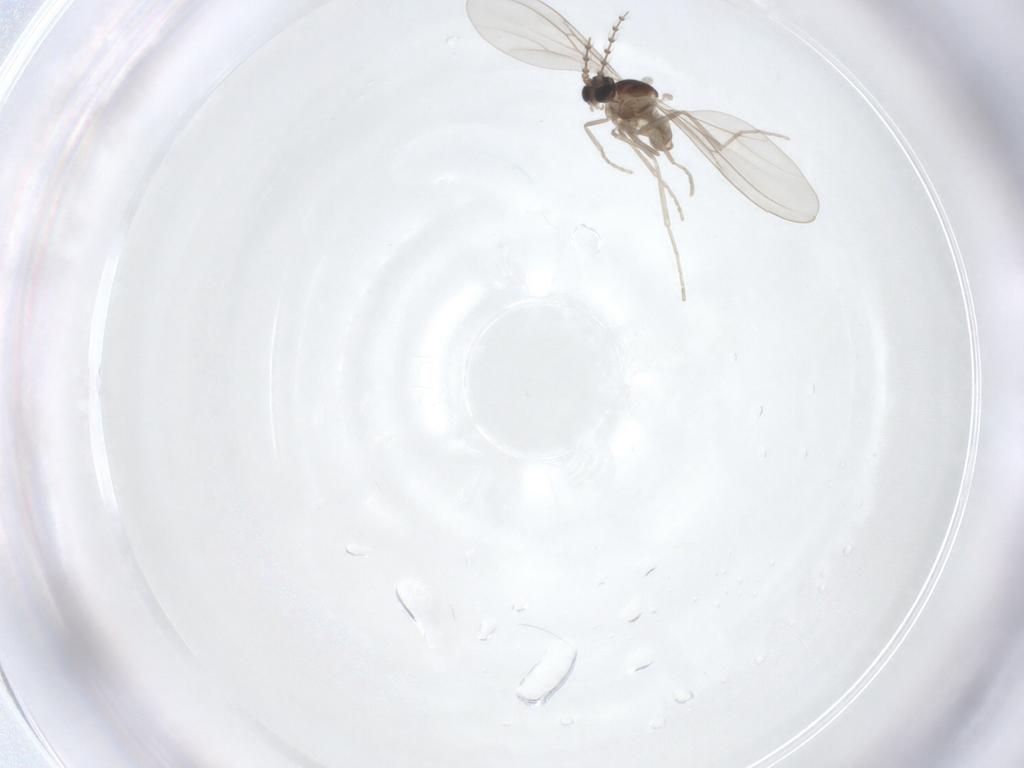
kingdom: Animalia
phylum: Arthropoda
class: Insecta
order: Diptera
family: Cecidomyiidae
